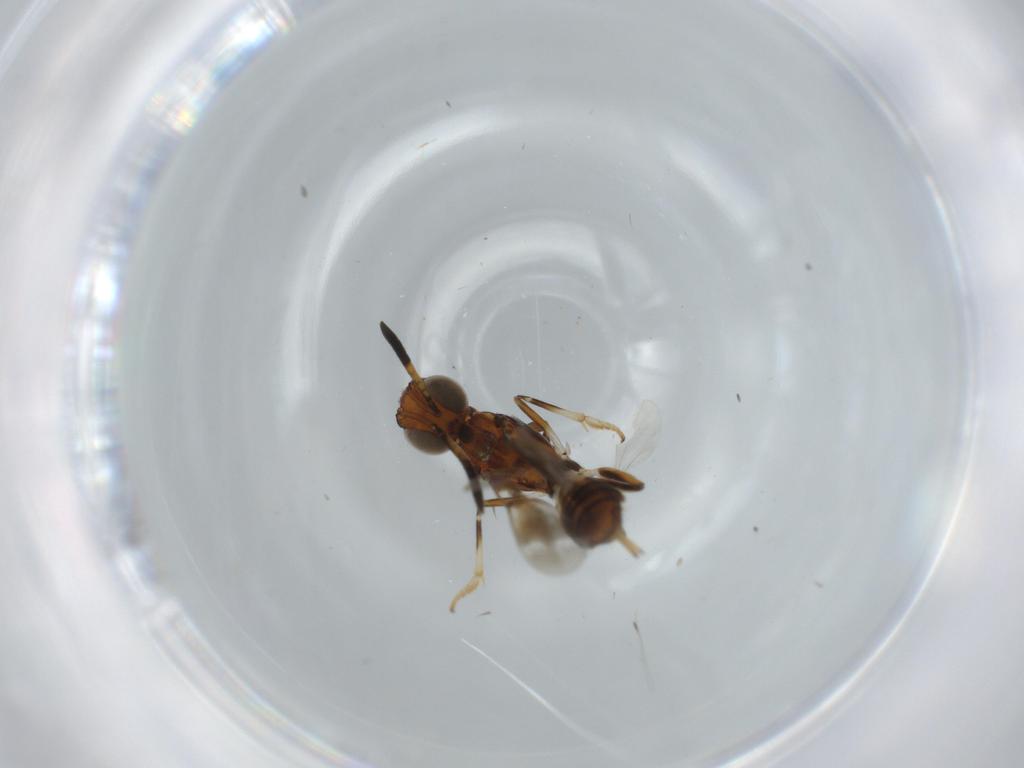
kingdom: Animalia
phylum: Arthropoda
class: Insecta
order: Hymenoptera
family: Eupelmidae
